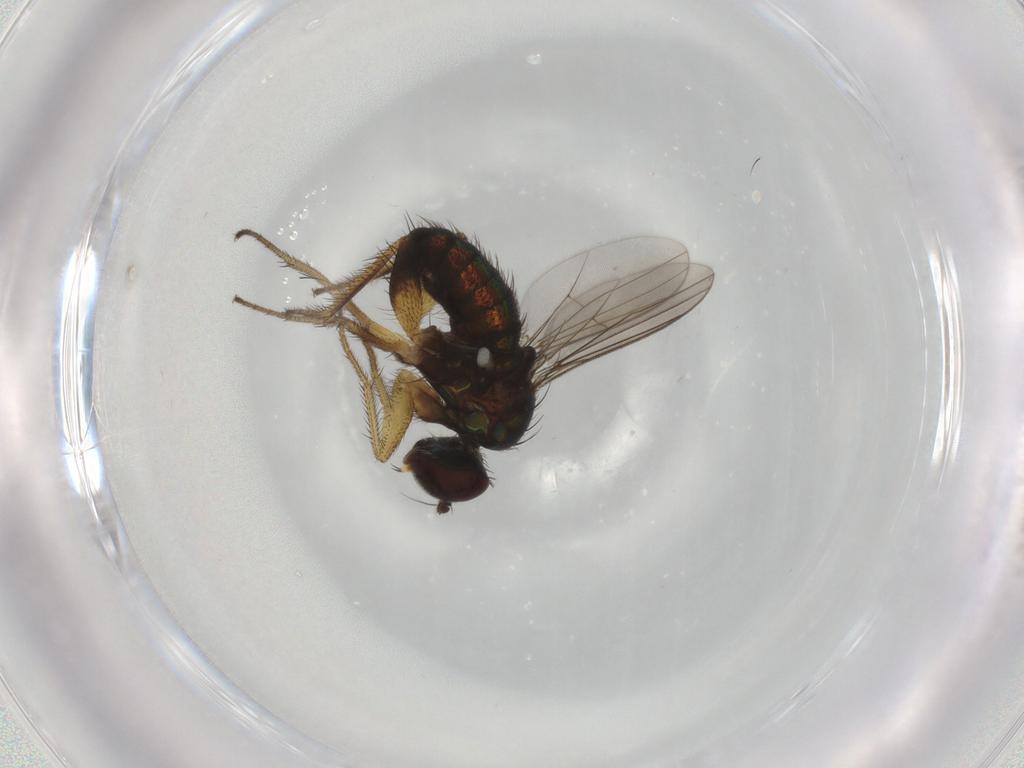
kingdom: Animalia
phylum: Arthropoda
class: Insecta
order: Diptera
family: Dolichopodidae
